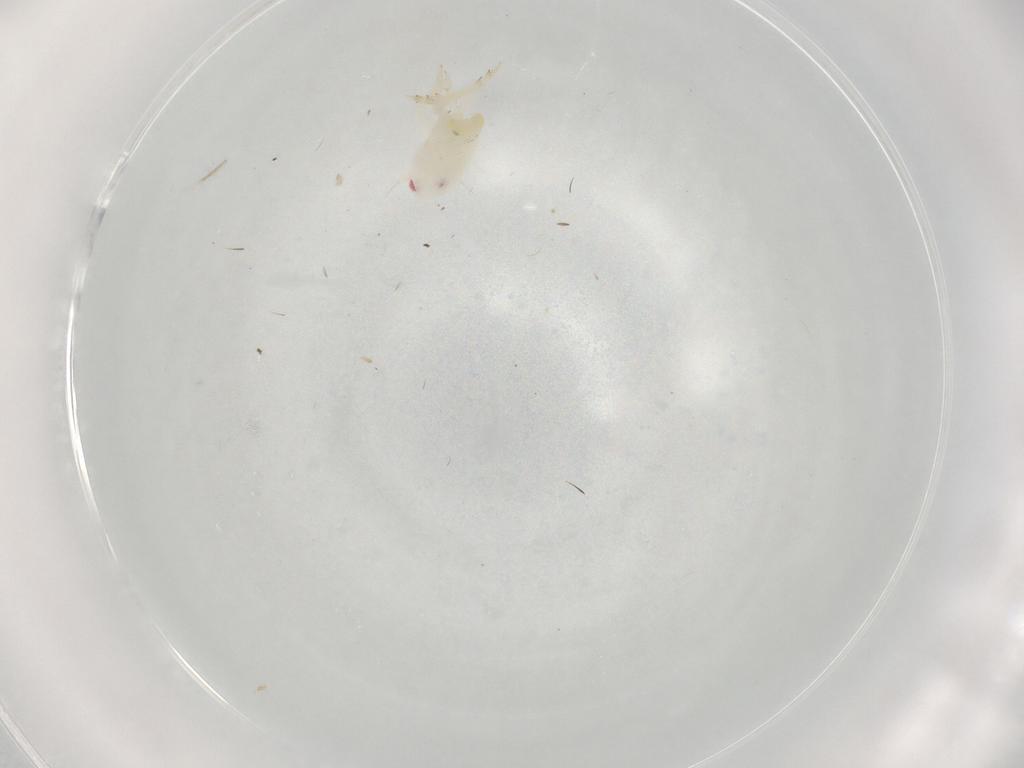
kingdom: Animalia
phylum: Arthropoda
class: Insecta
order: Hemiptera
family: Flatidae
